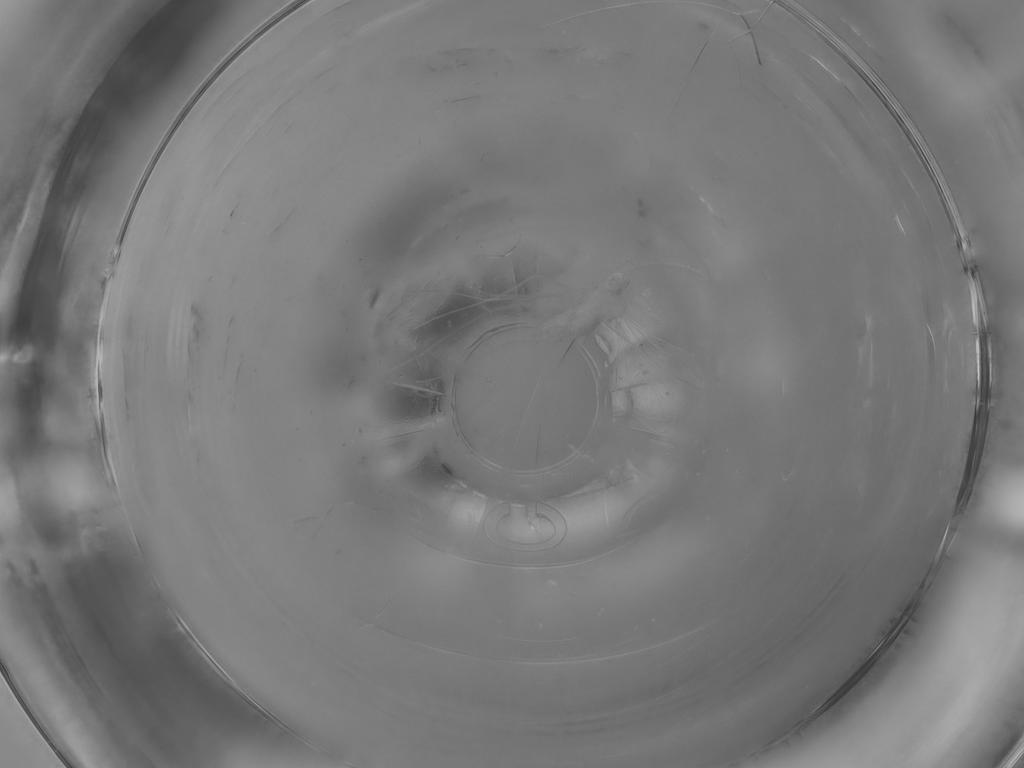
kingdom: Animalia
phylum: Arthropoda
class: Insecta
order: Diptera
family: Cecidomyiidae
